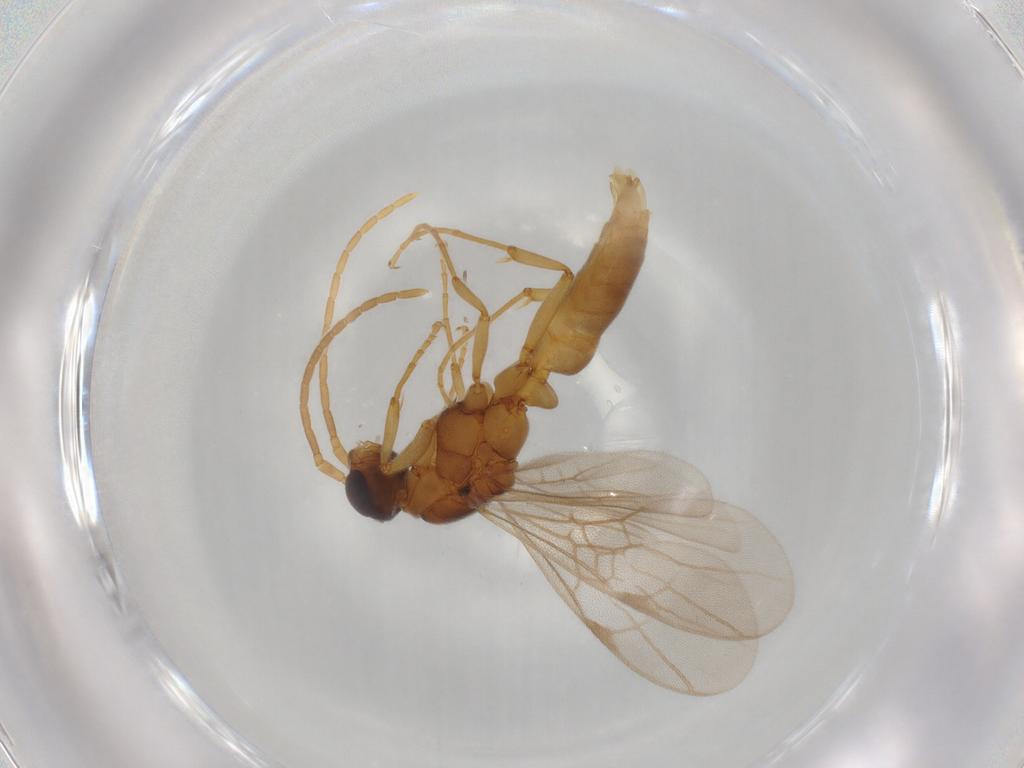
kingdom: Animalia
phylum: Arthropoda
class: Insecta
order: Hymenoptera
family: Formicidae
